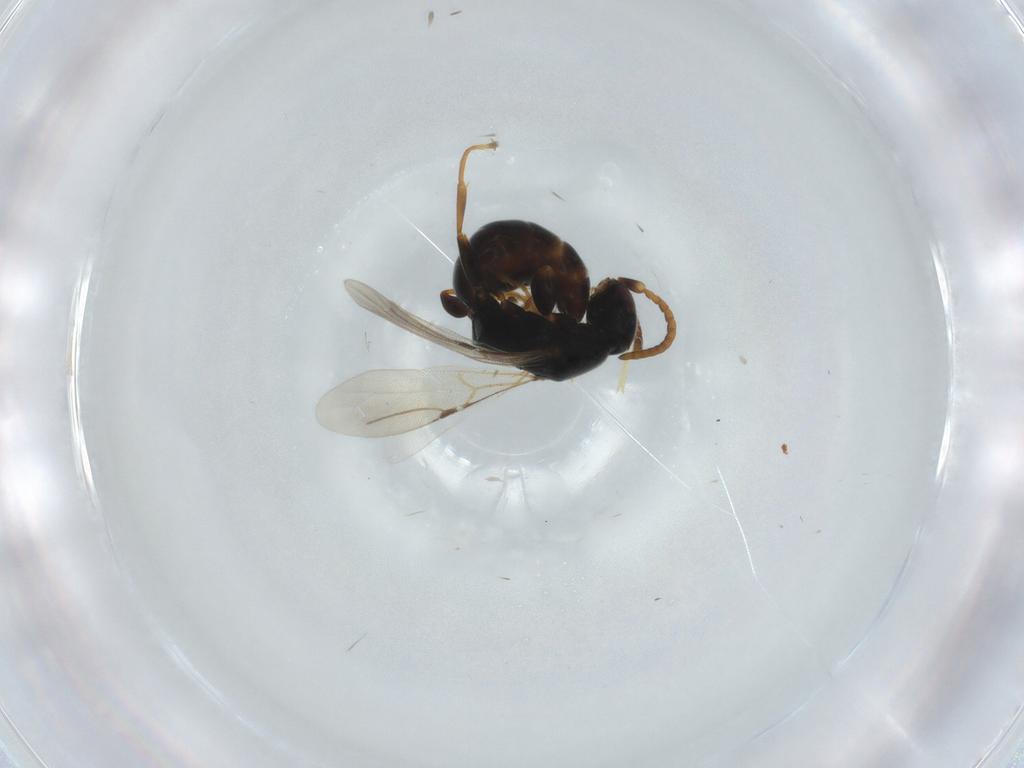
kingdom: Animalia
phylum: Arthropoda
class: Insecta
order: Hymenoptera
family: Bethylidae
